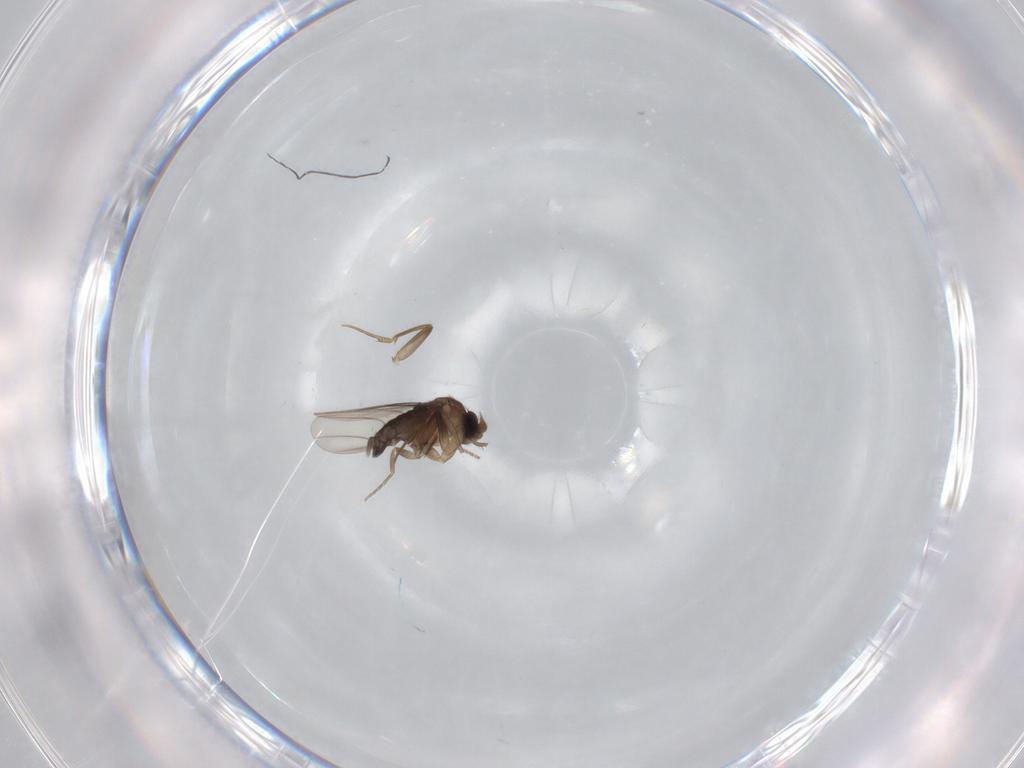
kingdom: Animalia
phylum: Arthropoda
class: Insecta
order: Diptera
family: Phoridae
